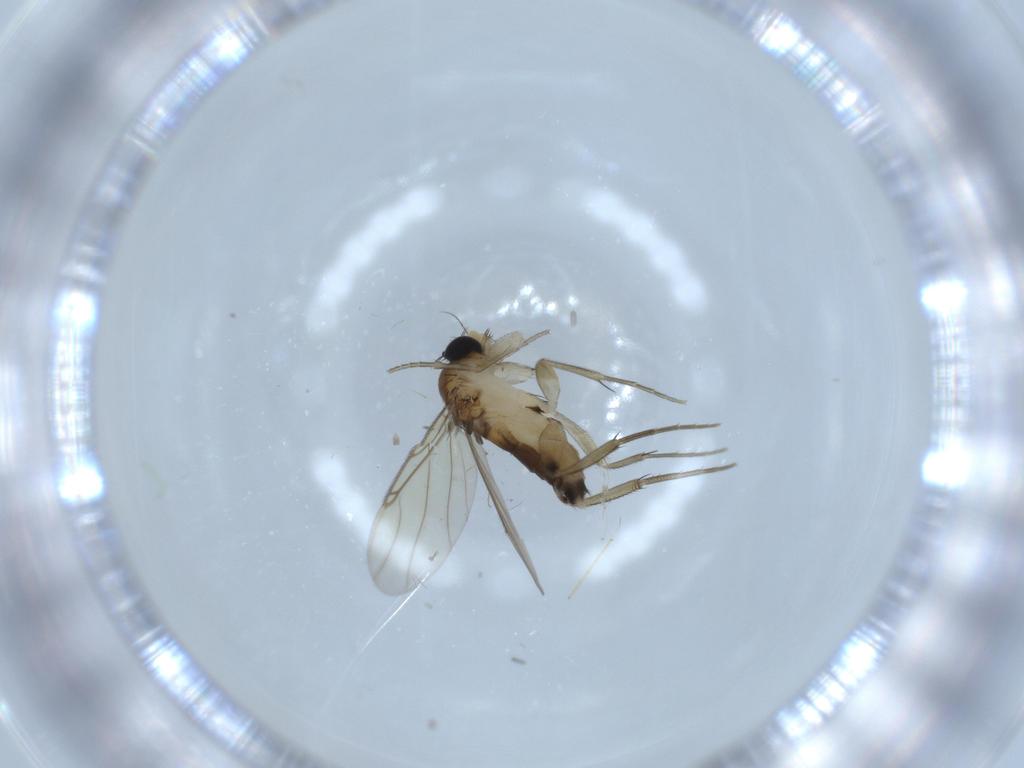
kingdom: Animalia
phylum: Arthropoda
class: Insecta
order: Diptera
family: Phoridae
